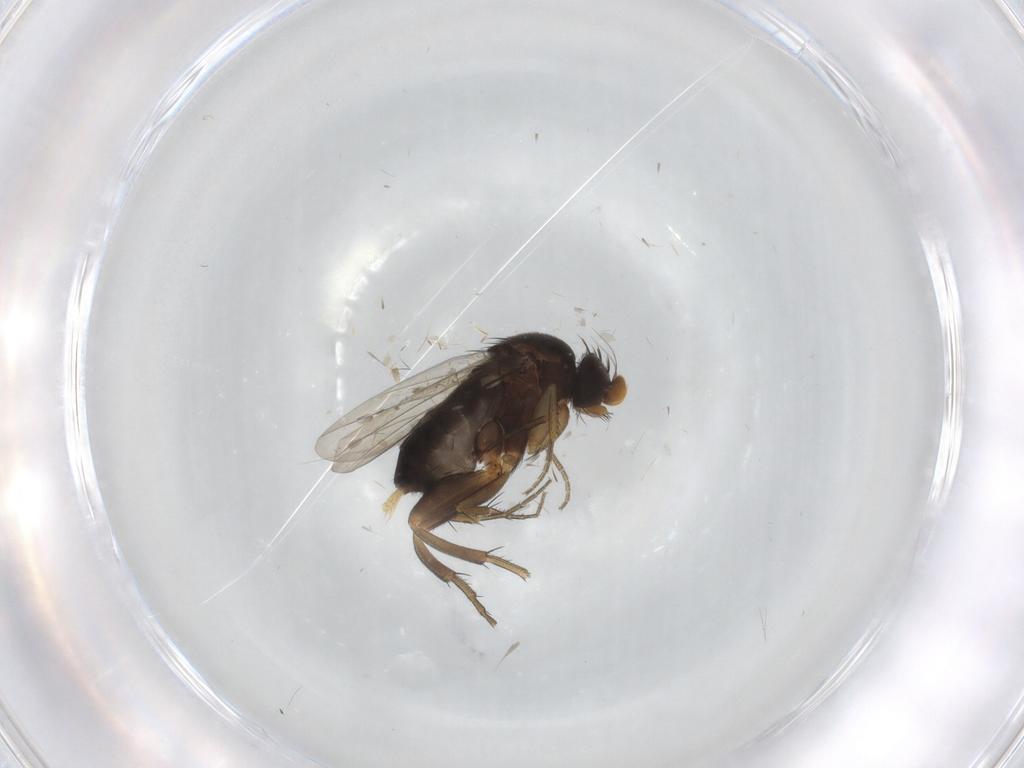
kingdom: Animalia
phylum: Arthropoda
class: Insecta
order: Diptera
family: Phoridae
